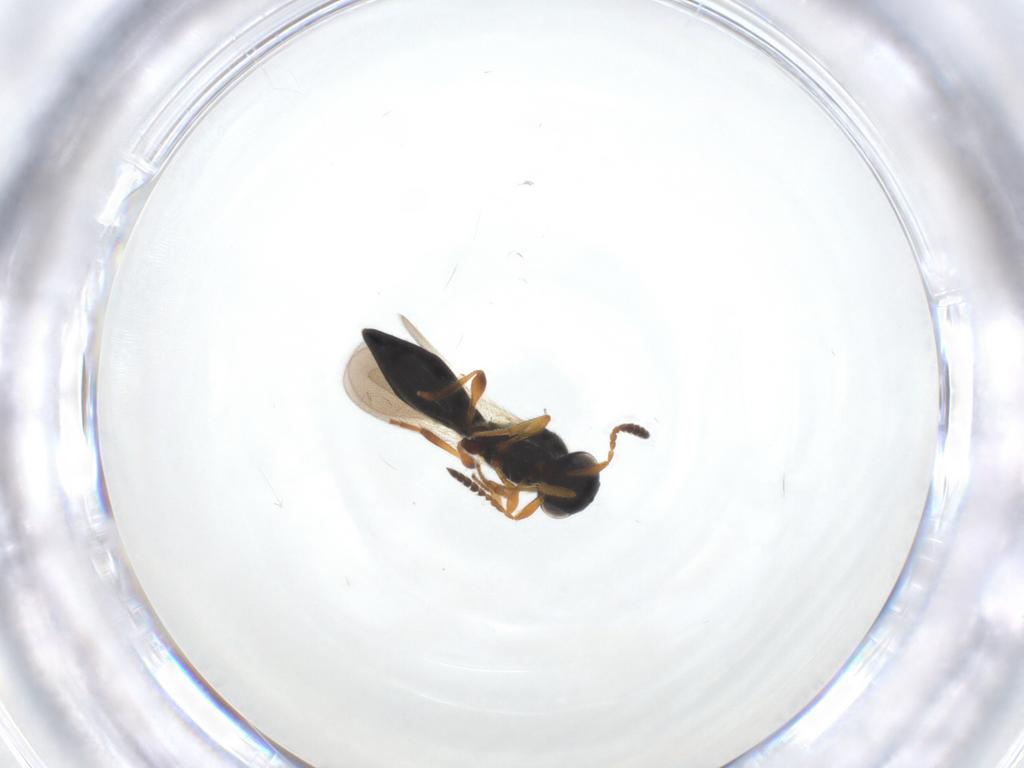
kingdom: Animalia
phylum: Arthropoda
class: Insecta
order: Hymenoptera
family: Platygastridae
